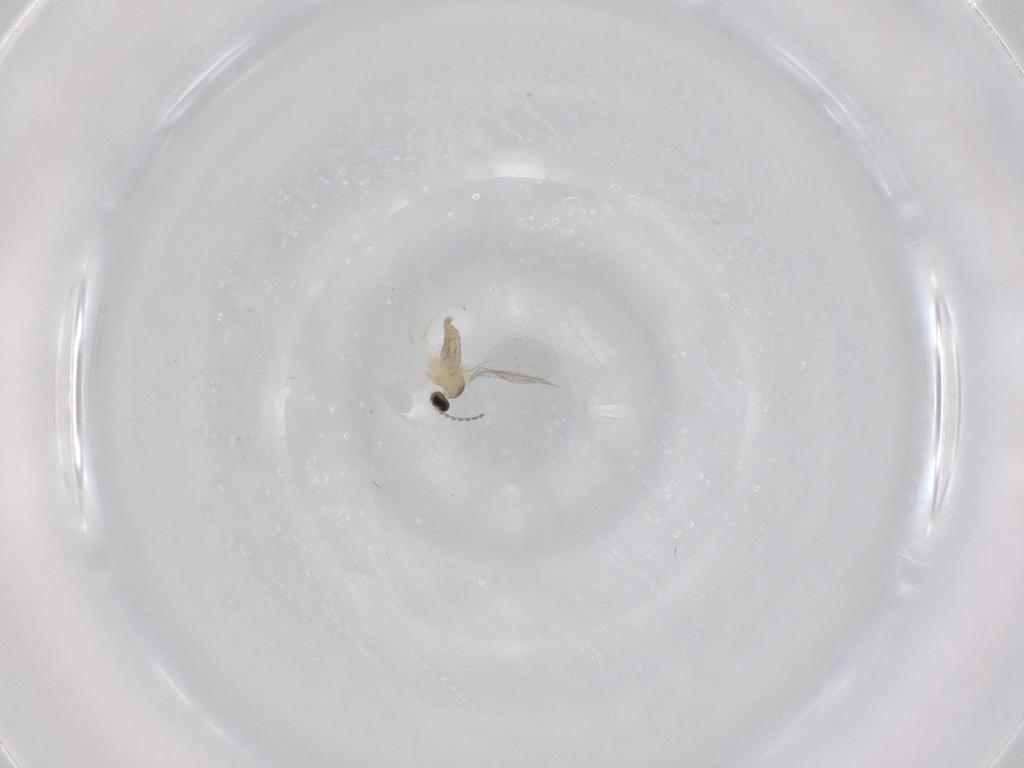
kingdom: Animalia
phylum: Arthropoda
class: Insecta
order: Diptera
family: Cecidomyiidae
